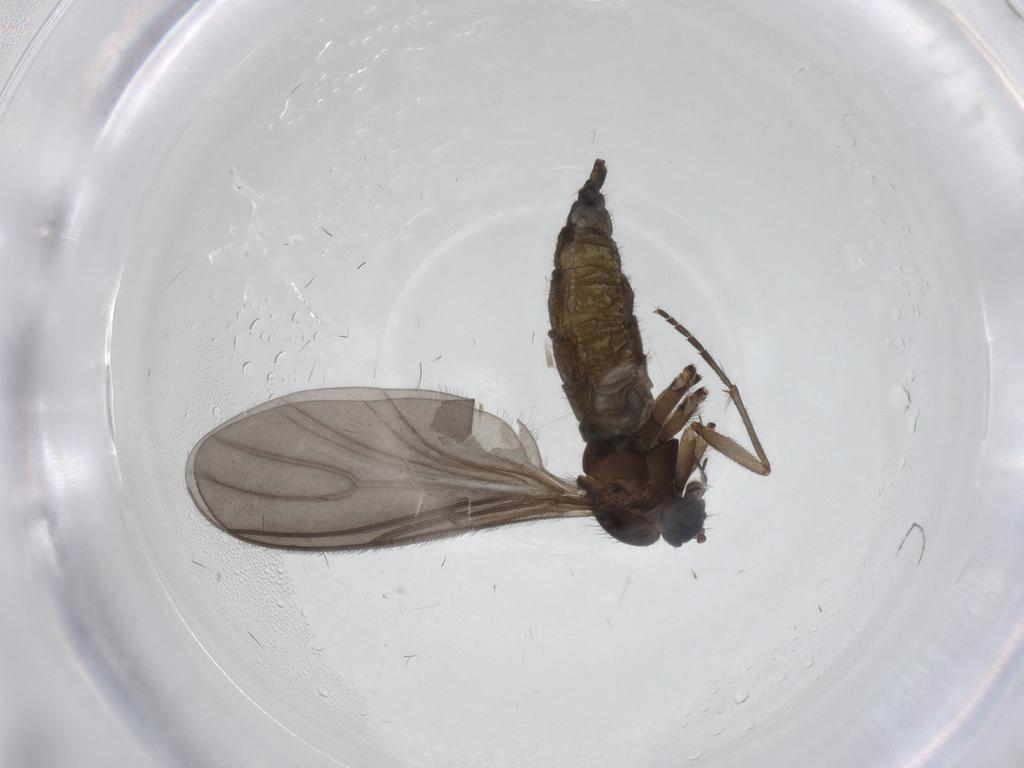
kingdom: Animalia
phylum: Arthropoda
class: Insecta
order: Diptera
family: Sciaridae
